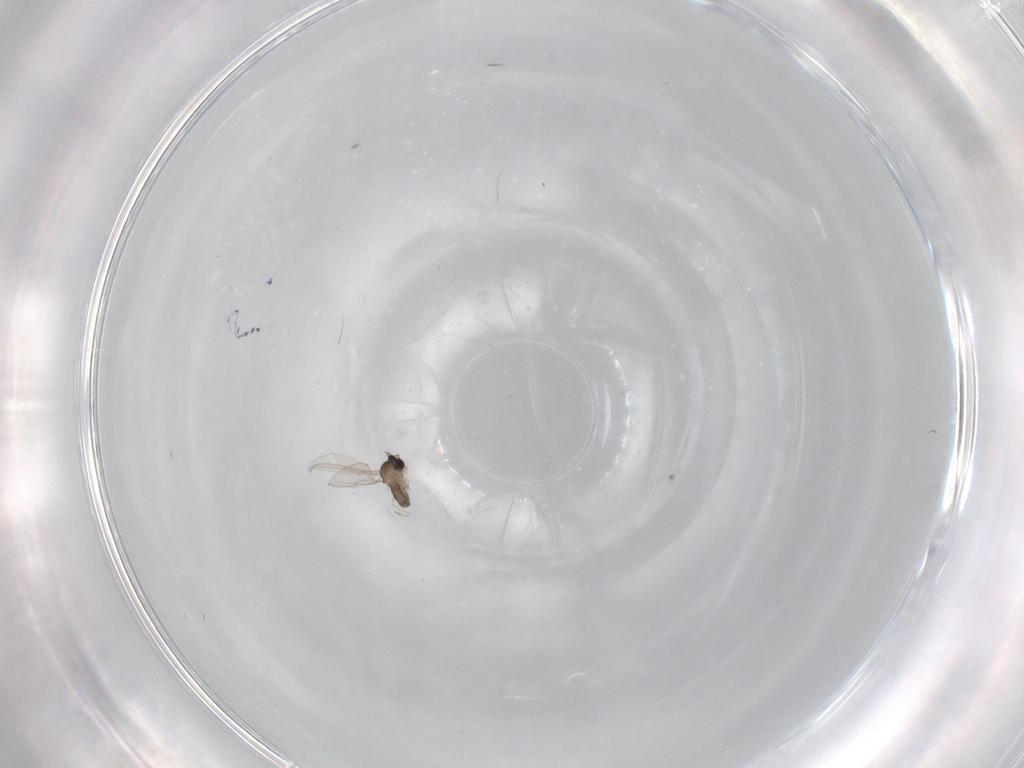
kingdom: Animalia
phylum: Arthropoda
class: Insecta
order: Diptera
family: Cecidomyiidae
